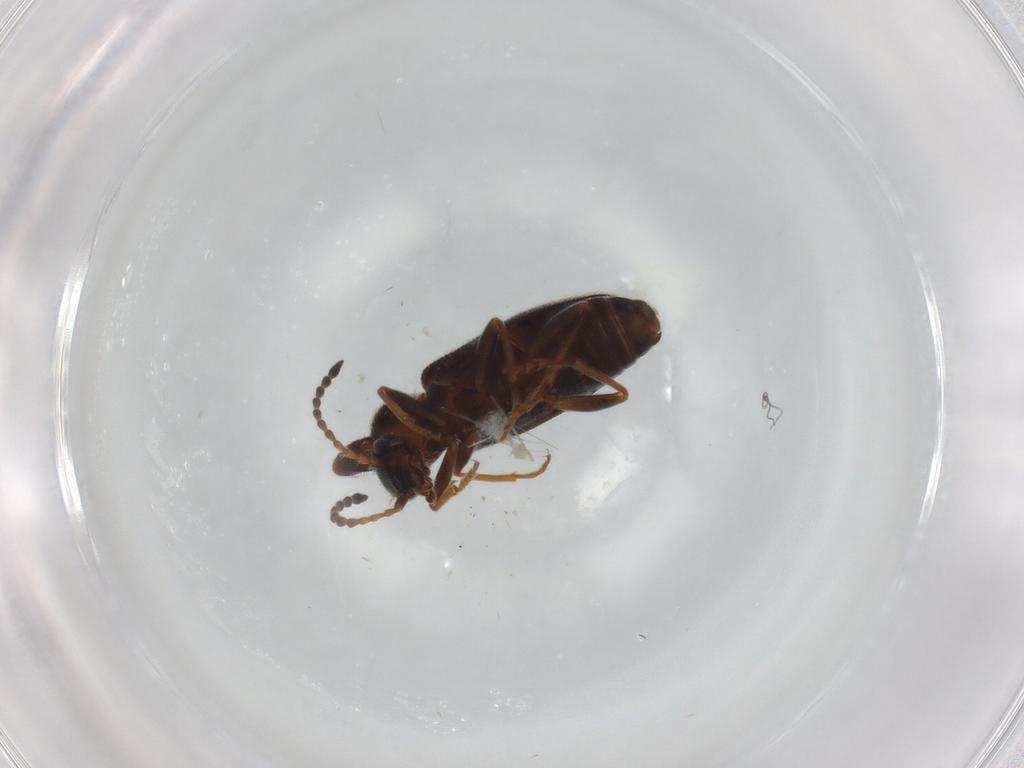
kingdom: Animalia
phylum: Arthropoda
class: Insecta
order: Coleoptera
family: Anthicidae
